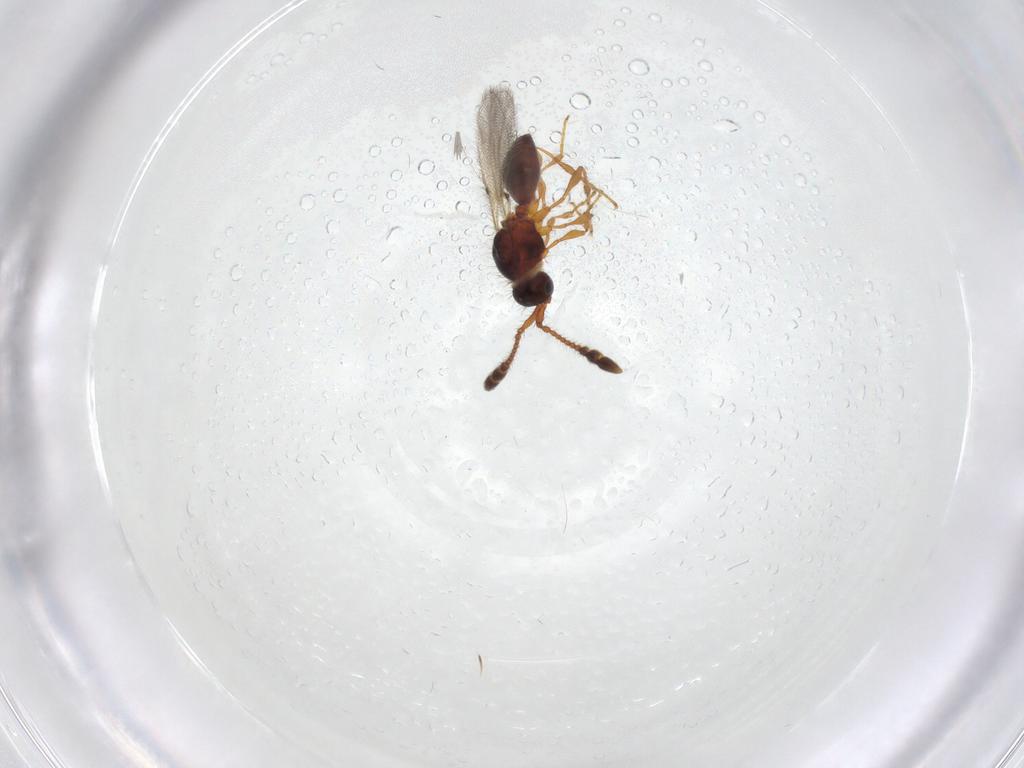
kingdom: Animalia
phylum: Arthropoda
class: Insecta
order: Hymenoptera
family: Diapriidae
